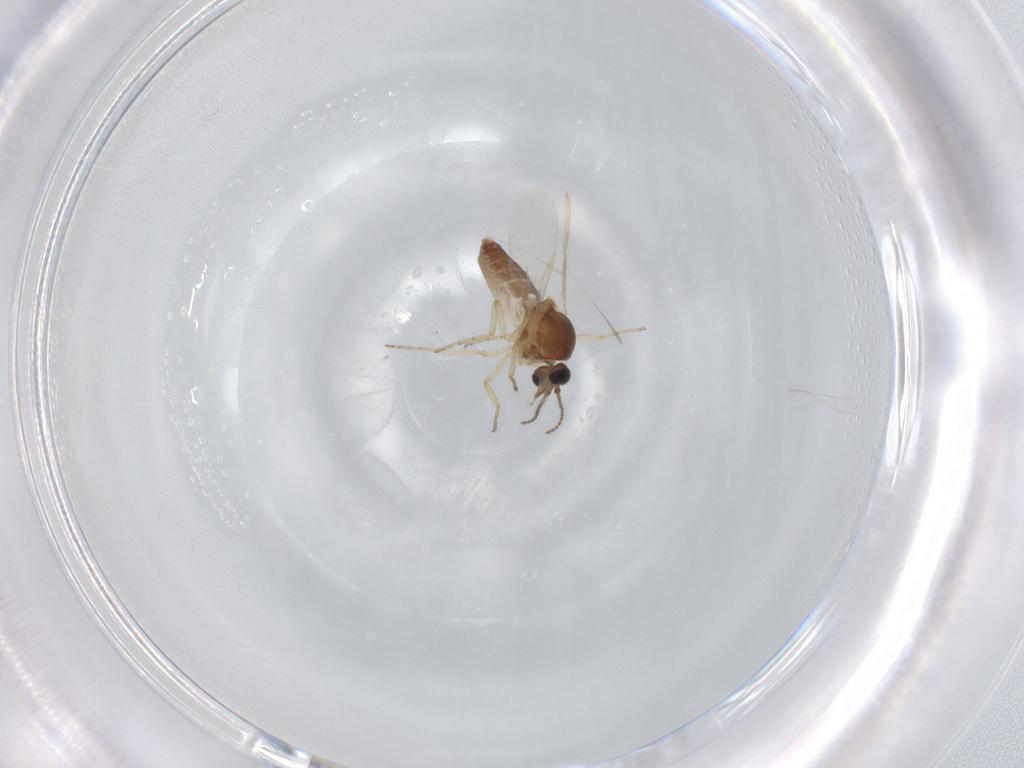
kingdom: Animalia
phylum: Arthropoda
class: Insecta
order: Diptera
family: Ceratopogonidae
